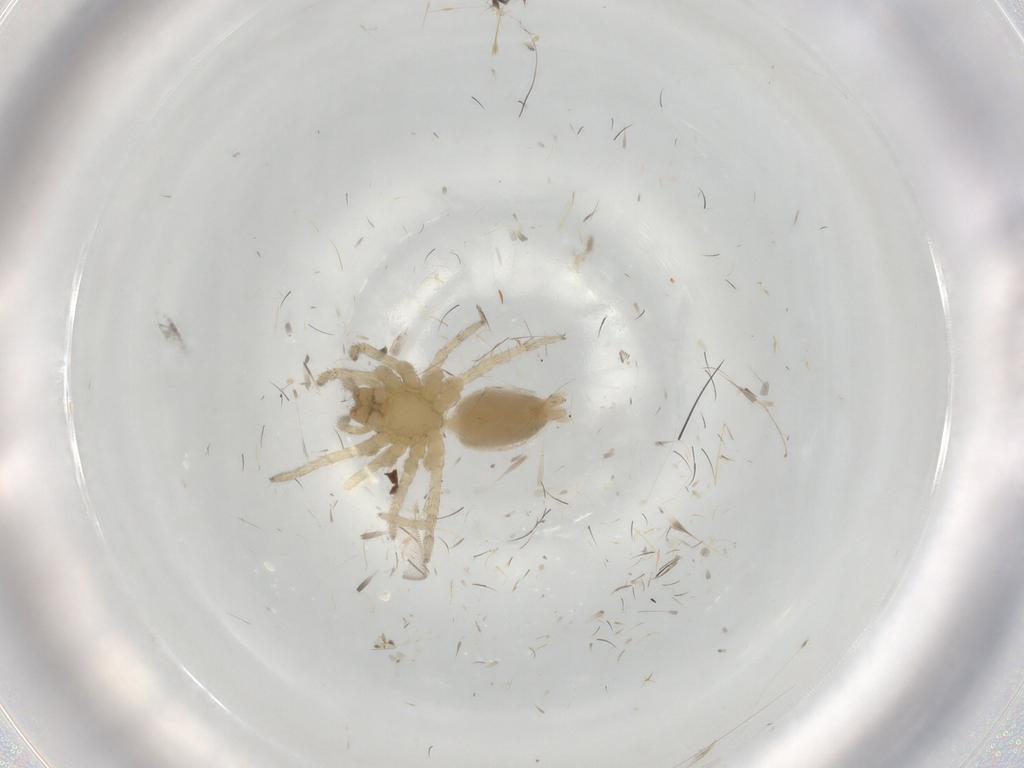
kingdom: Animalia
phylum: Arthropoda
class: Arachnida
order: Araneae
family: Anyphaenidae
